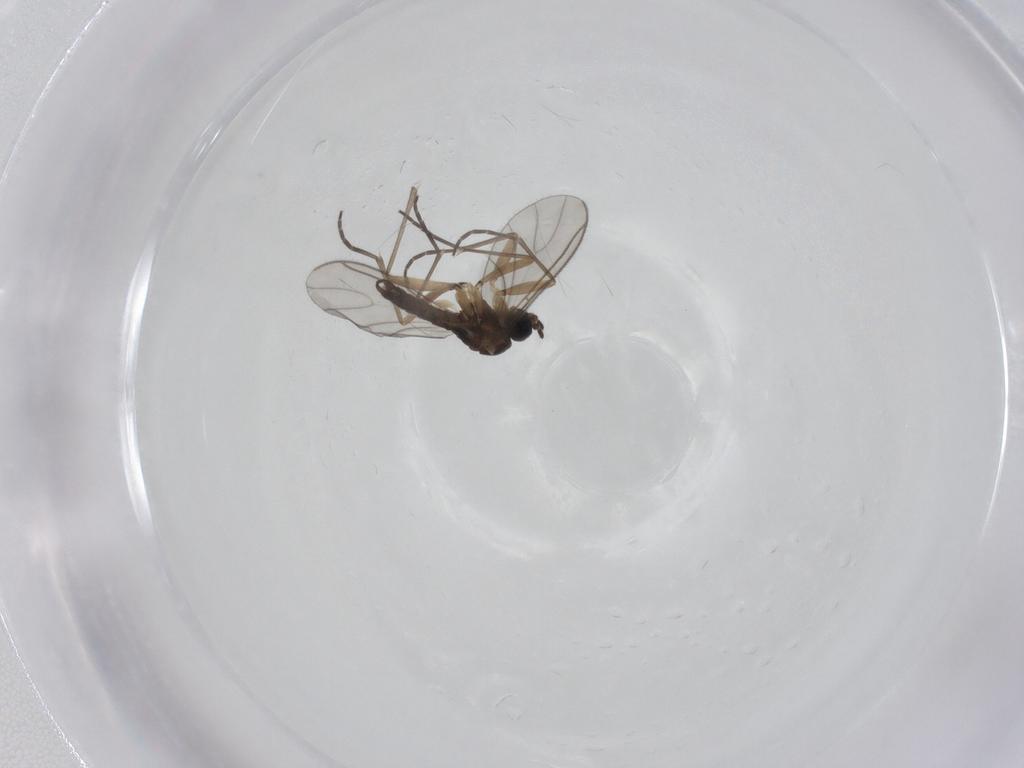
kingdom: Animalia
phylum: Arthropoda
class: Insecta
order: Diptera
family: Sciaridae
